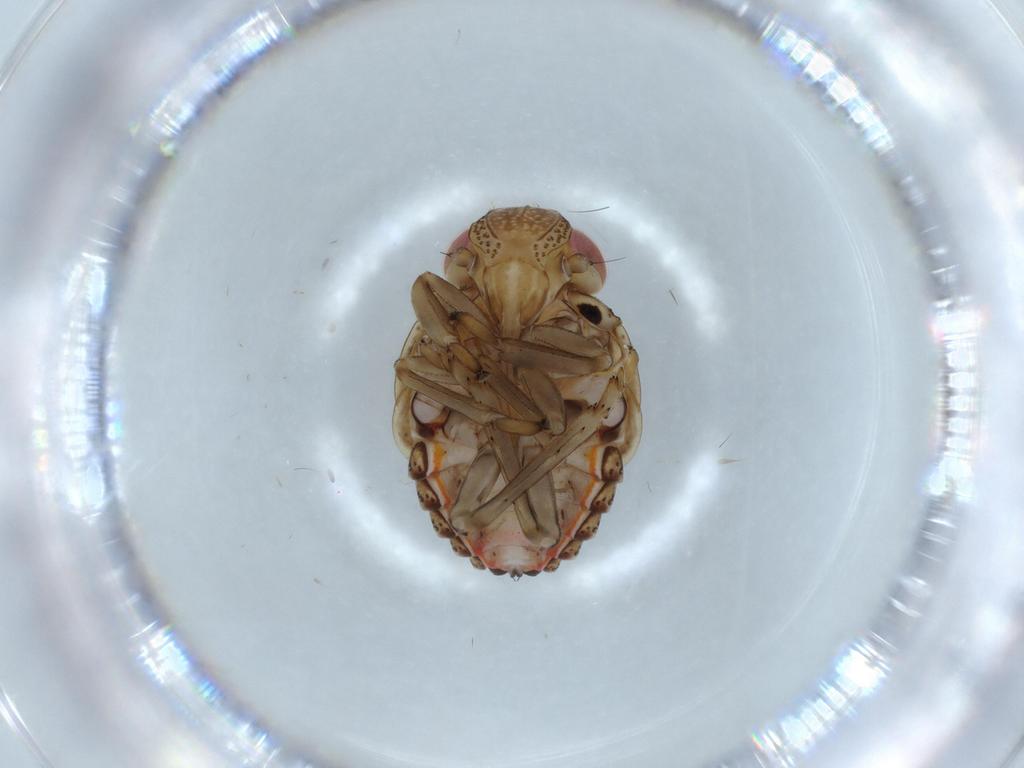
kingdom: Animalia
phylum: Arthropoda
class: Insecta
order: Hemiptera
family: Issidae
